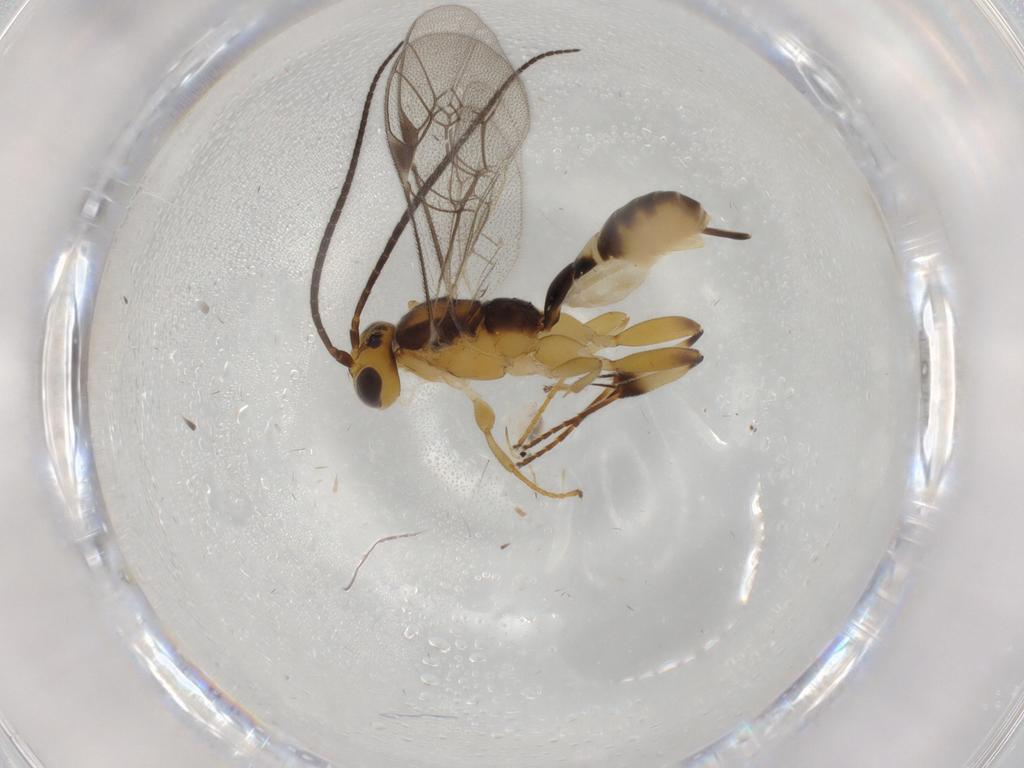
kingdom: Animalia
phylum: Arthropoda
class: Insecta
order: Hymenoptera
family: Ichneumonidae
